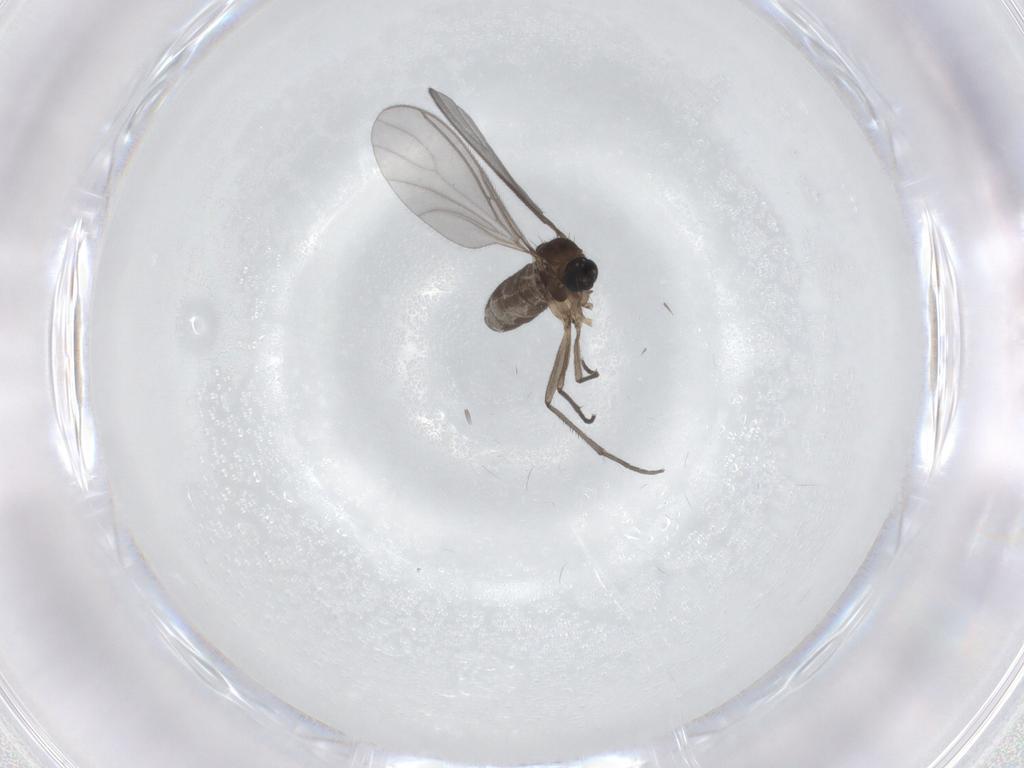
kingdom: Animalia
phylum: Arthropoda
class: Insecta
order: Diptera
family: Sciaridae
